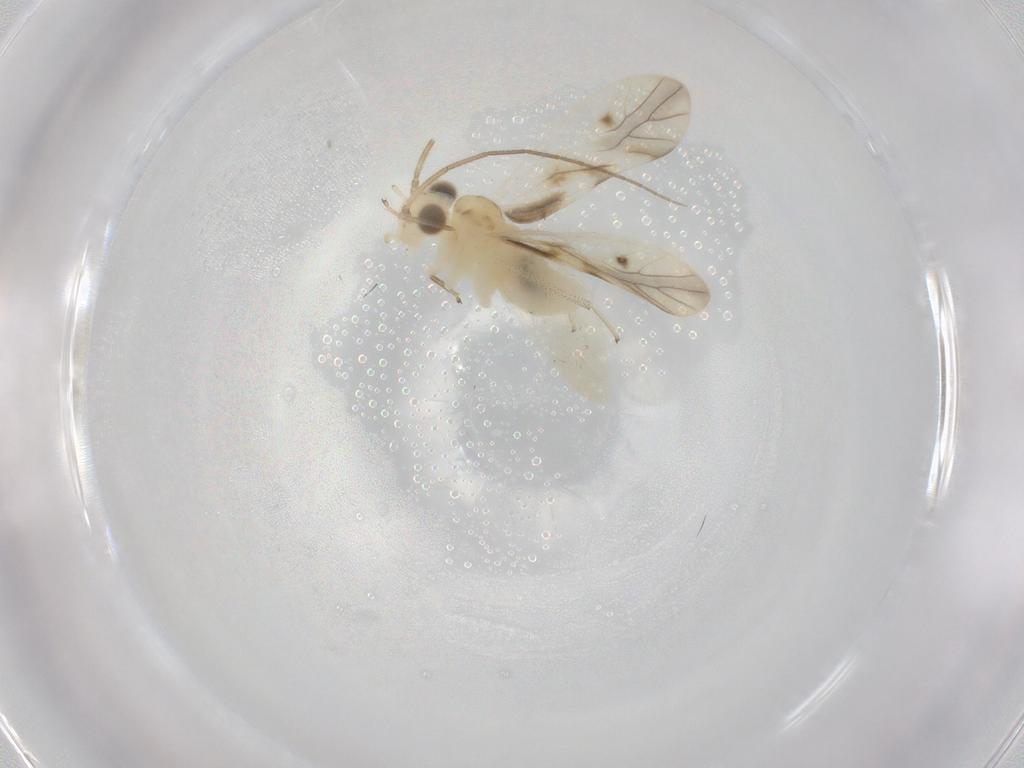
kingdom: Animalia
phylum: Arthropoda
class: Insecta
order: Psocodea
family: Caeciliusidae
